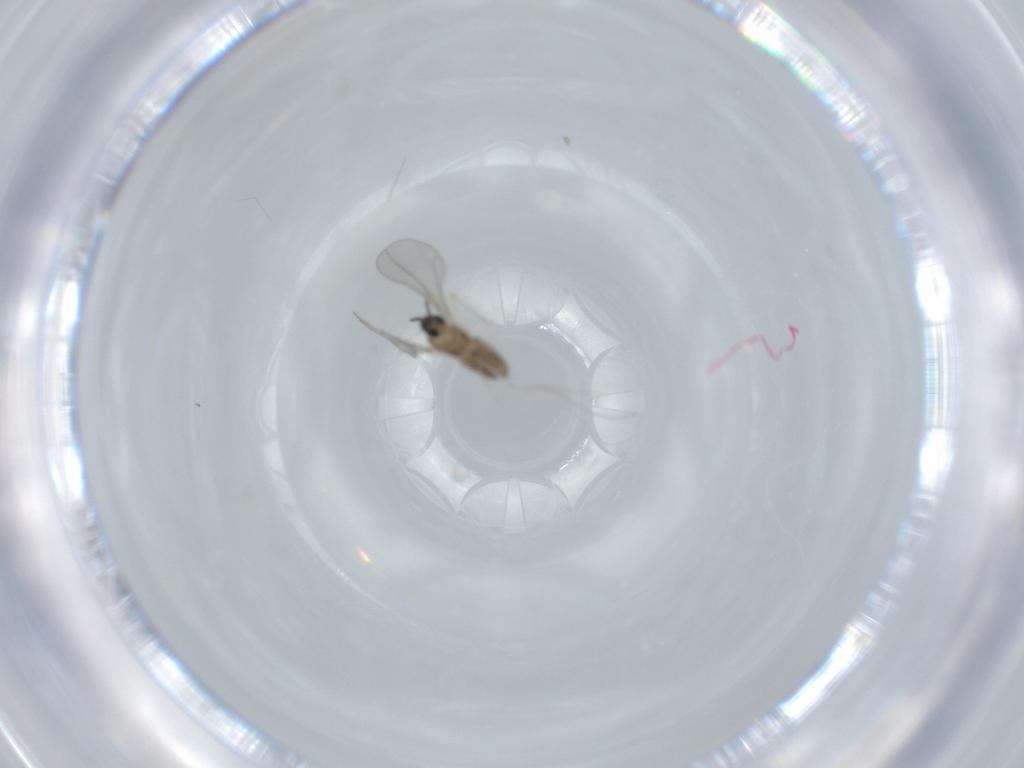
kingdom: Animalia
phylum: Arthropoda
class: Insecta
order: Diptera
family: Cecidomyiidae
